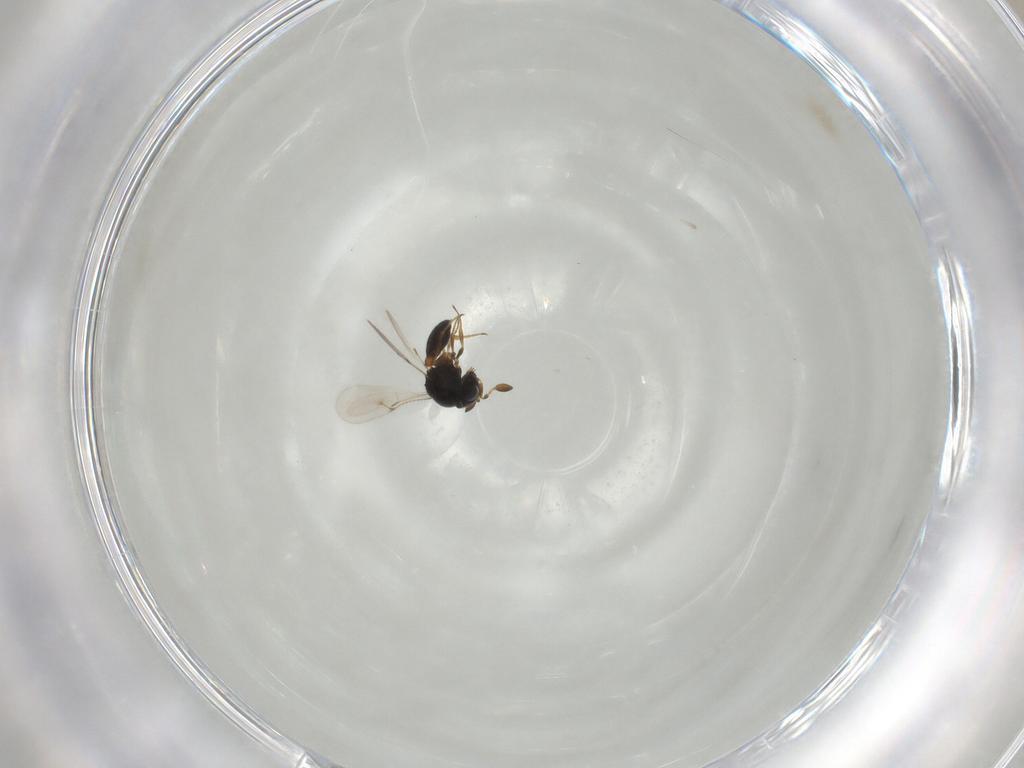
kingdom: Animalia
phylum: Arthropoda
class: Insecta
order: Hymenoptera
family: Scelionidae
